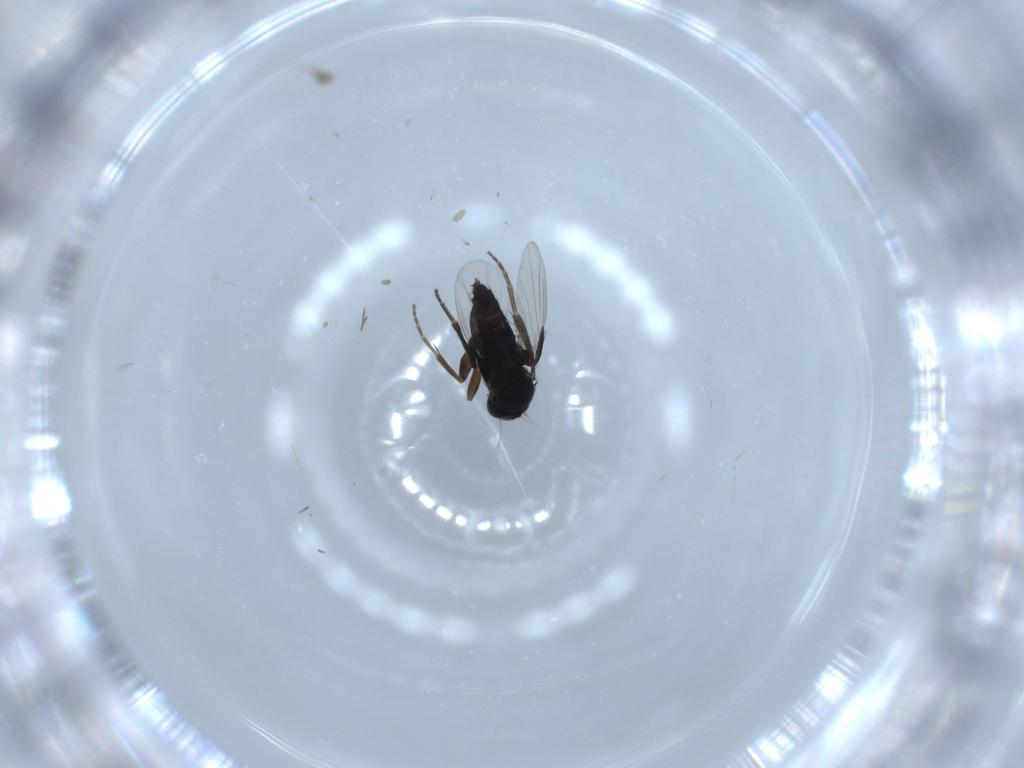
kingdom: Animalia
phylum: Arthropoda
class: Insecta
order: Diptera
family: Phoridae
